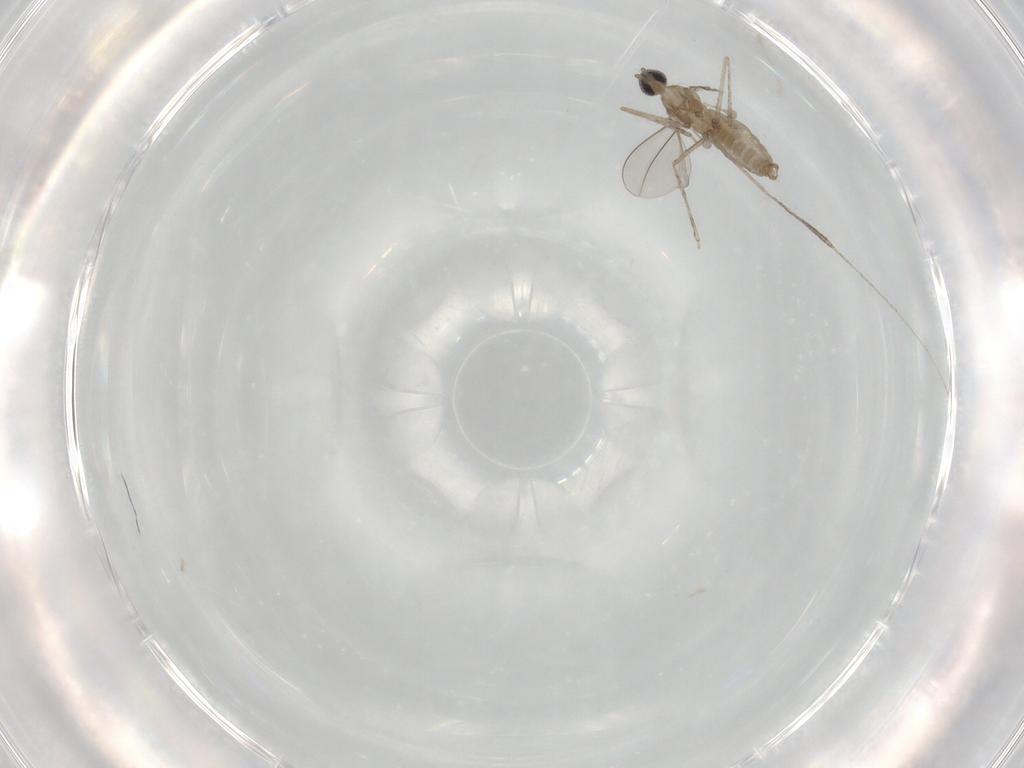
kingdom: Animalia
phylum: Arthropoda
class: Insecta
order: Diptera
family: Cecidomyiidae
